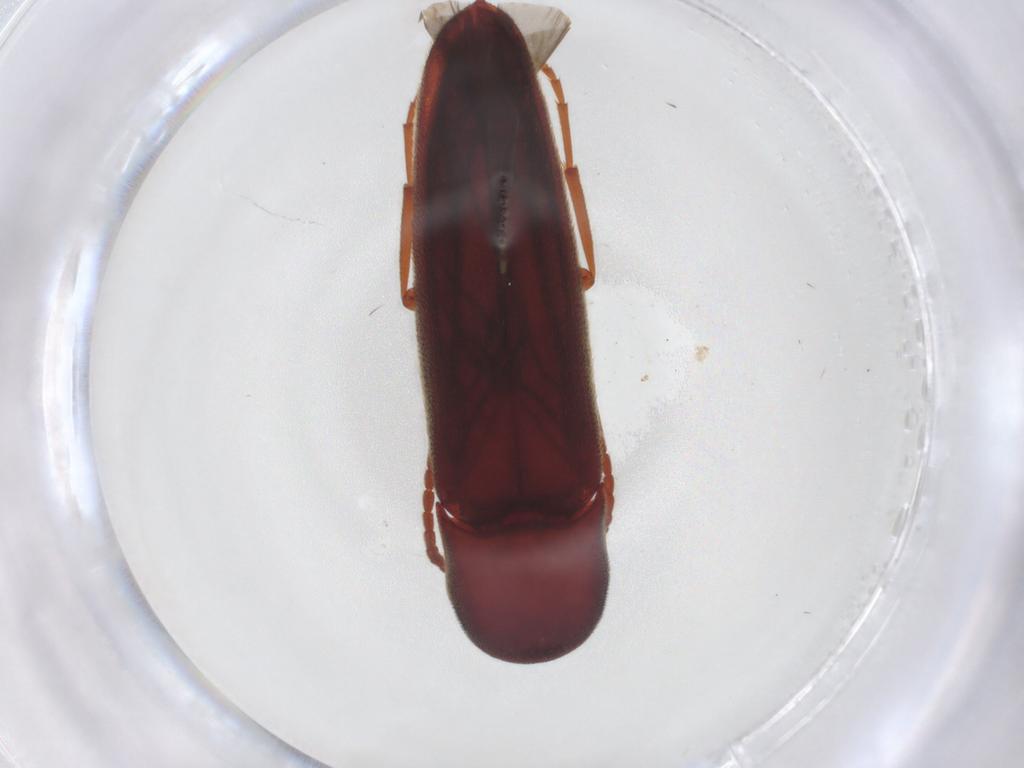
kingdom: Animalia
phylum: Arthropoda
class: Insecta
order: Coleoptera
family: Eucnemidae
